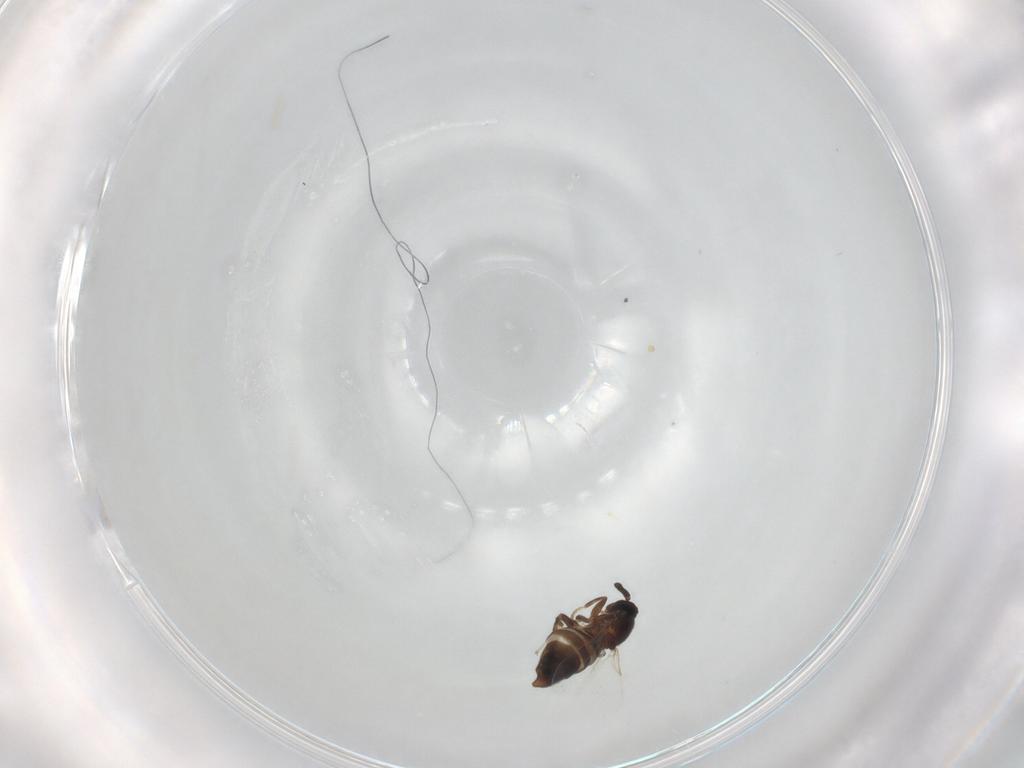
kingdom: Animalia
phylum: Arthropoda
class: Insecta
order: Diptera
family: Scatopsidae
